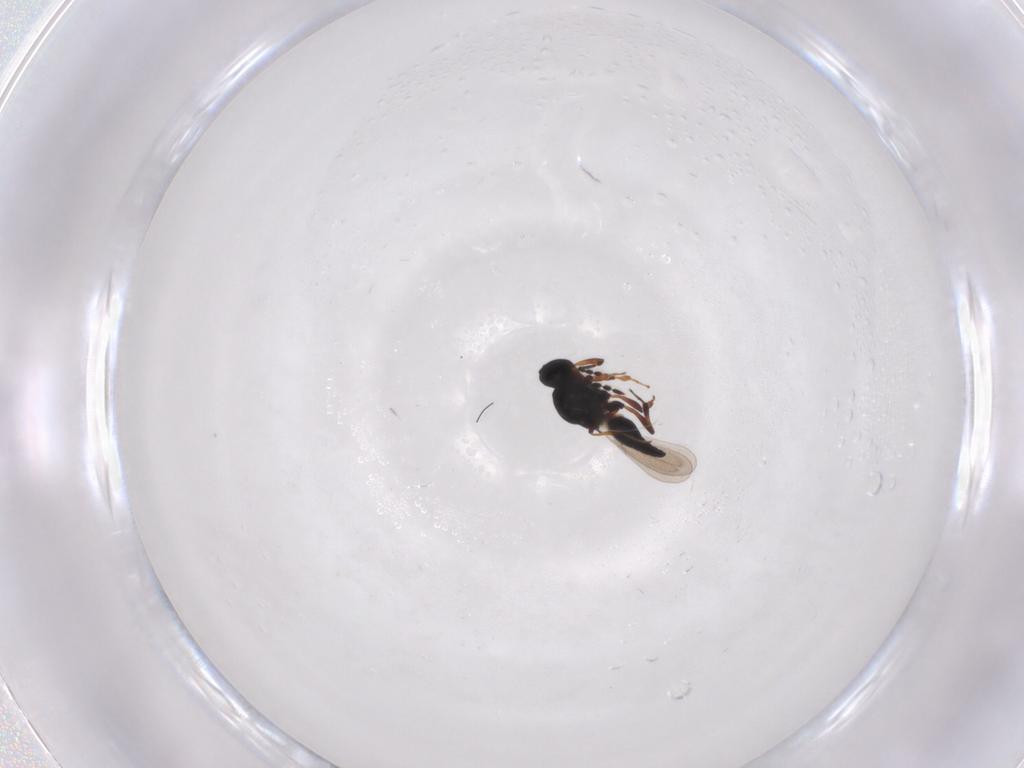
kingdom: Animalia
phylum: Arthropoda
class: Insecta
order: Hymenoptera
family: Platygastridae
